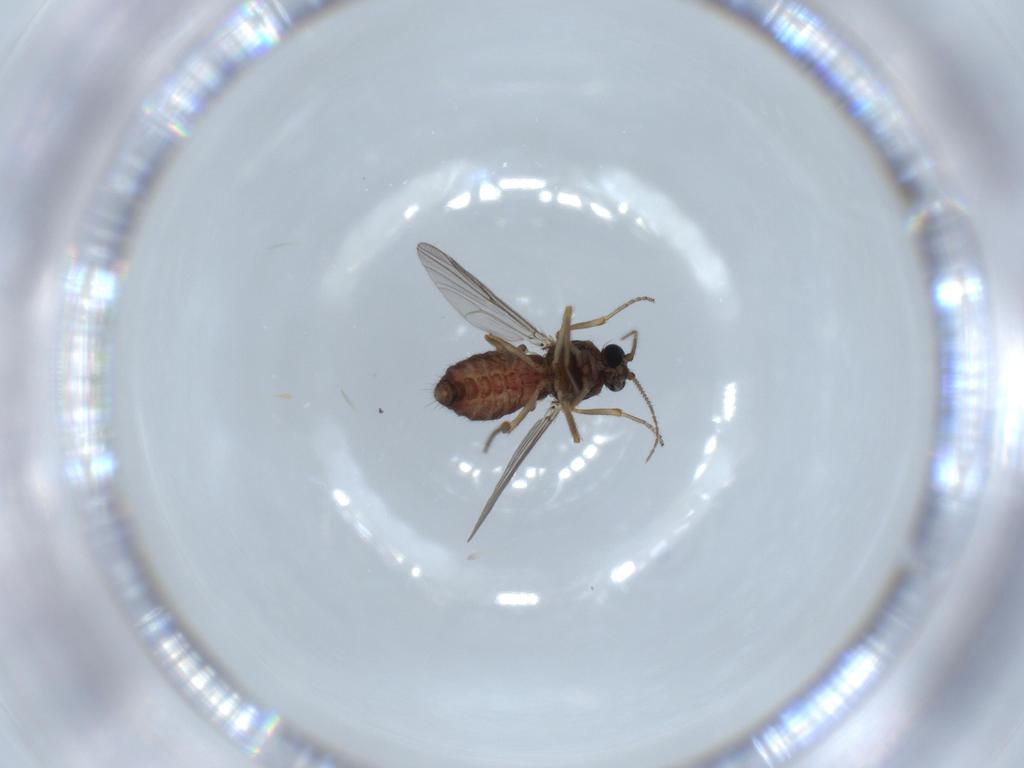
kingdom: Animalia
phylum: Arthropoda
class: Insecta
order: Diptera
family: Ceratopogonidae
